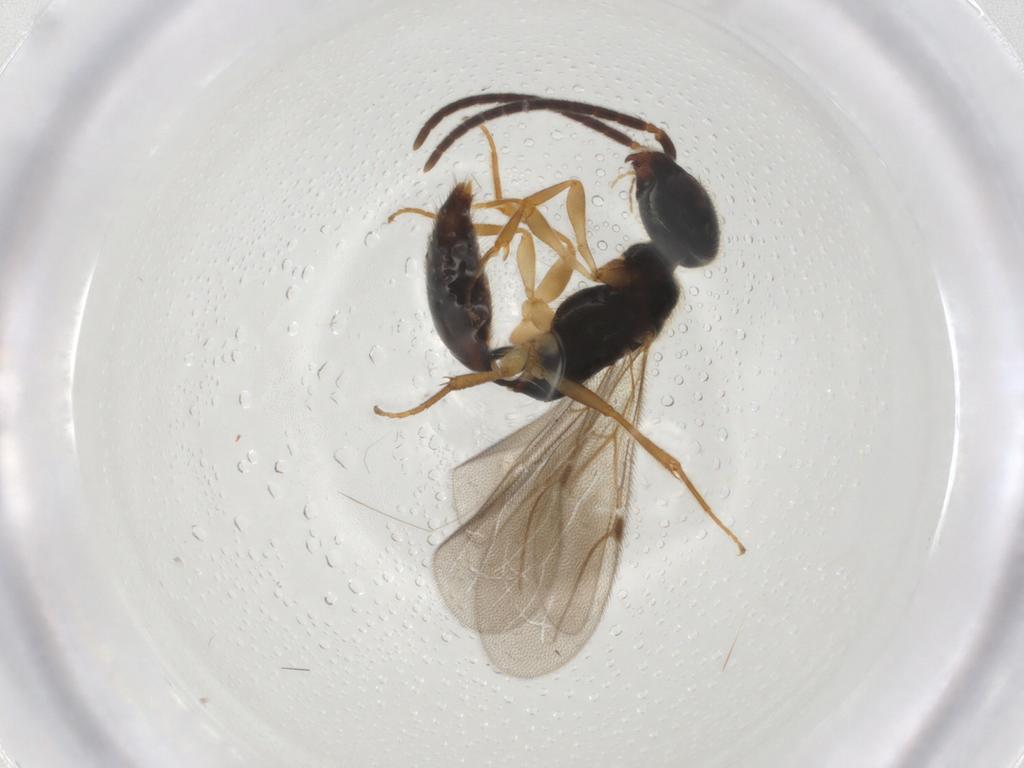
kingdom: Animalia
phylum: Arthropoda
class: Insecta
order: Hymenoptera
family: Bethylidae
